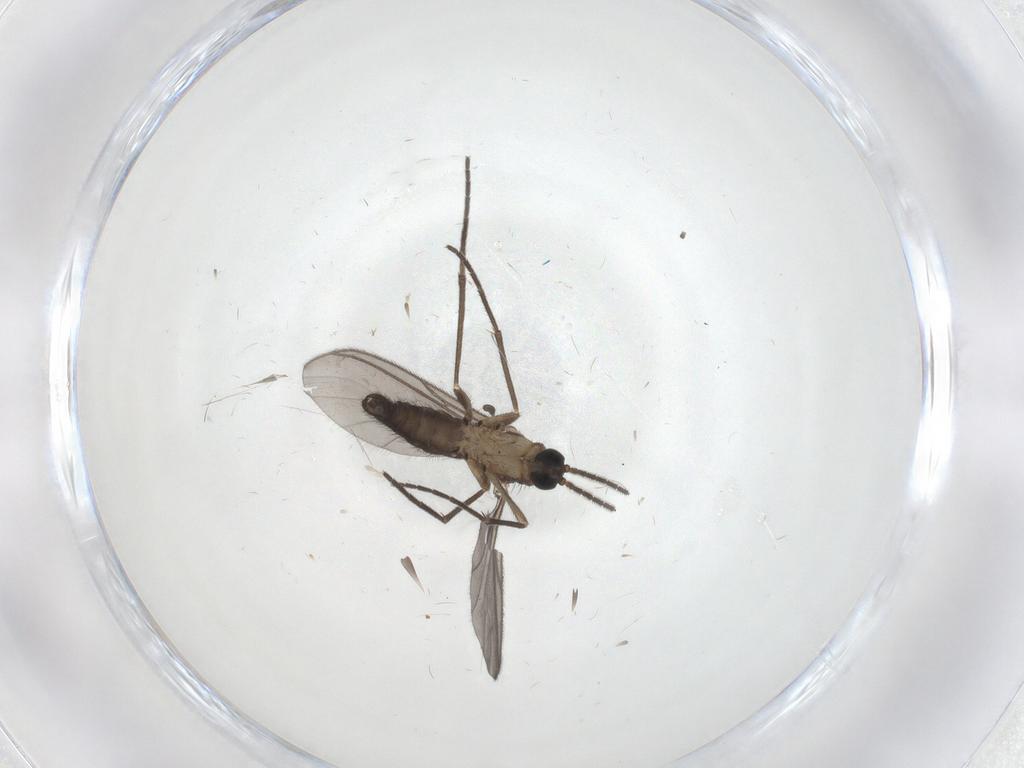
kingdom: Animalia
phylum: Arthropoda
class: Insecta
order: Diptera
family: Sciaridae
